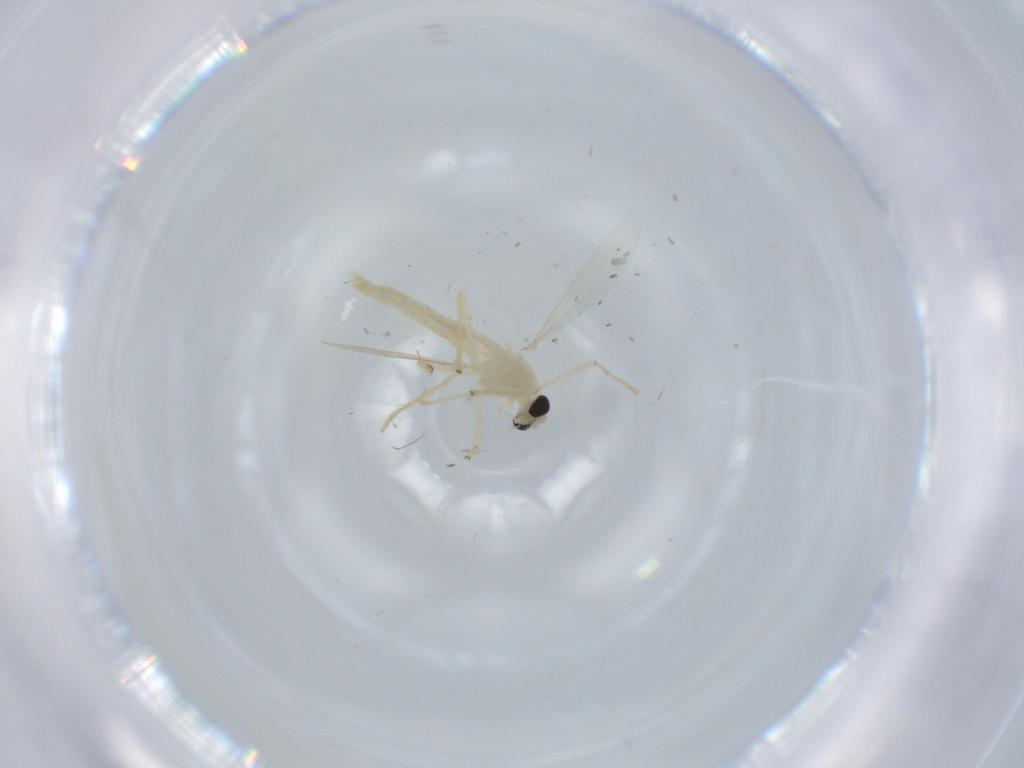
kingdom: Animalia
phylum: Arthropoda
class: Insecta
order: Diptera
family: Chironomidae
